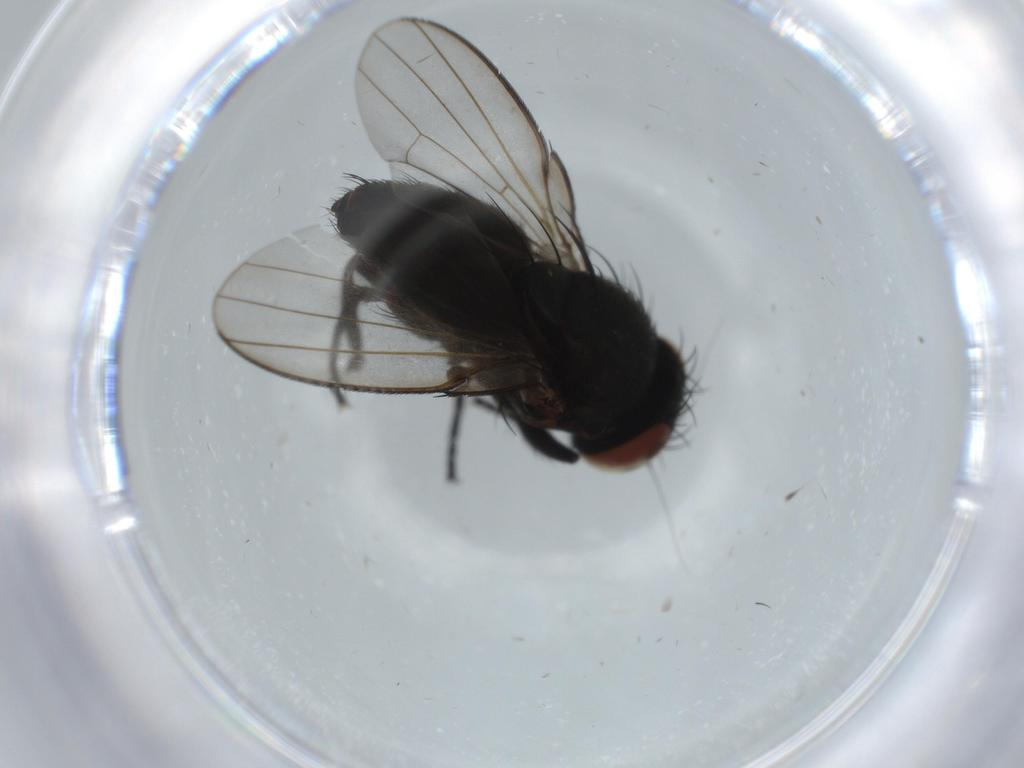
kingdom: Animalia
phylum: Arthropoda
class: Insecta
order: Diptera
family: Milichiidae
